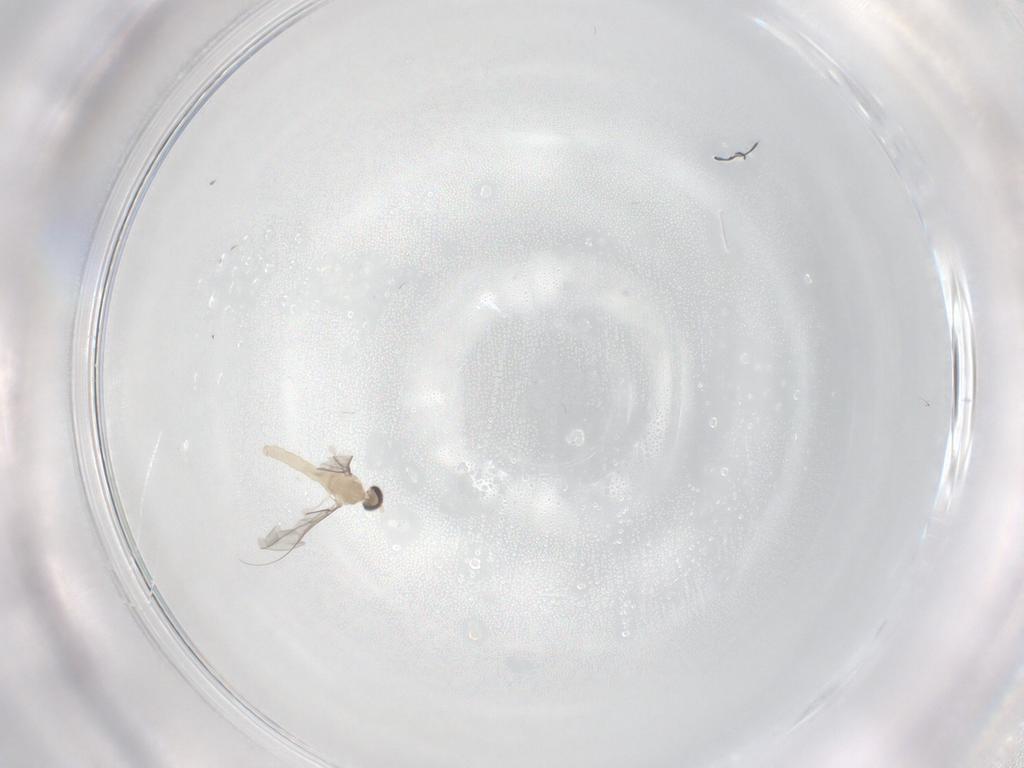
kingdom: Animalia
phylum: Arthropoda
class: Insecta
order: Diptera
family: Cecidomyiidae
